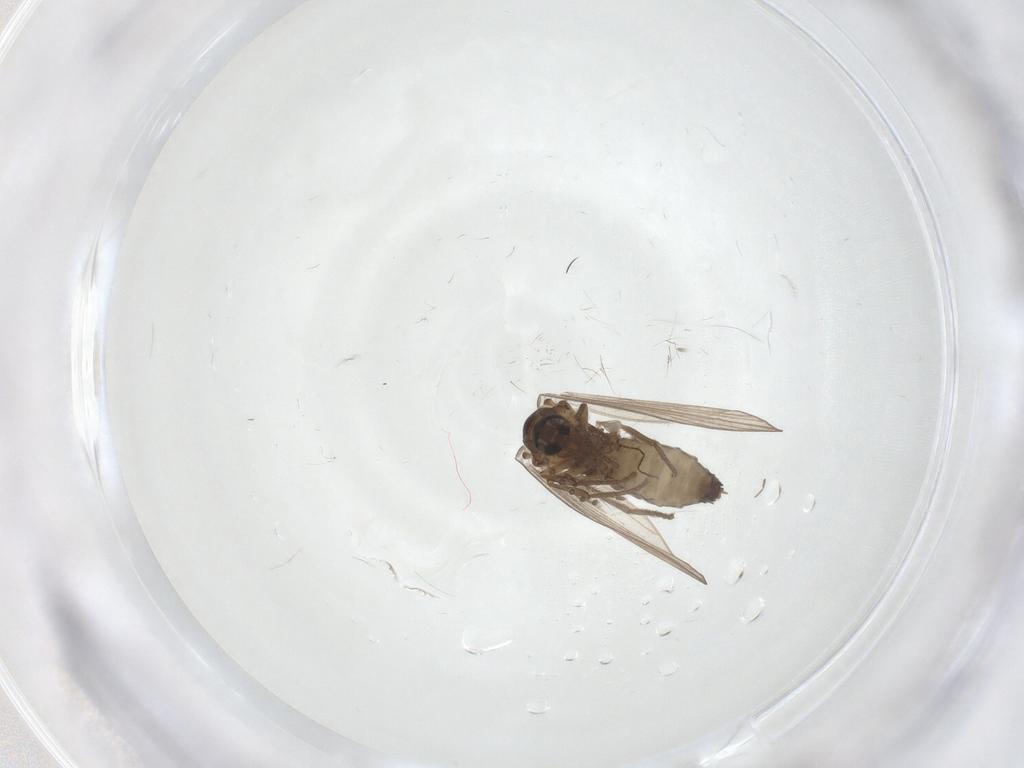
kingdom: Animalia
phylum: Arthropoda
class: Insecta
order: Diptera
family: Psychodidae
